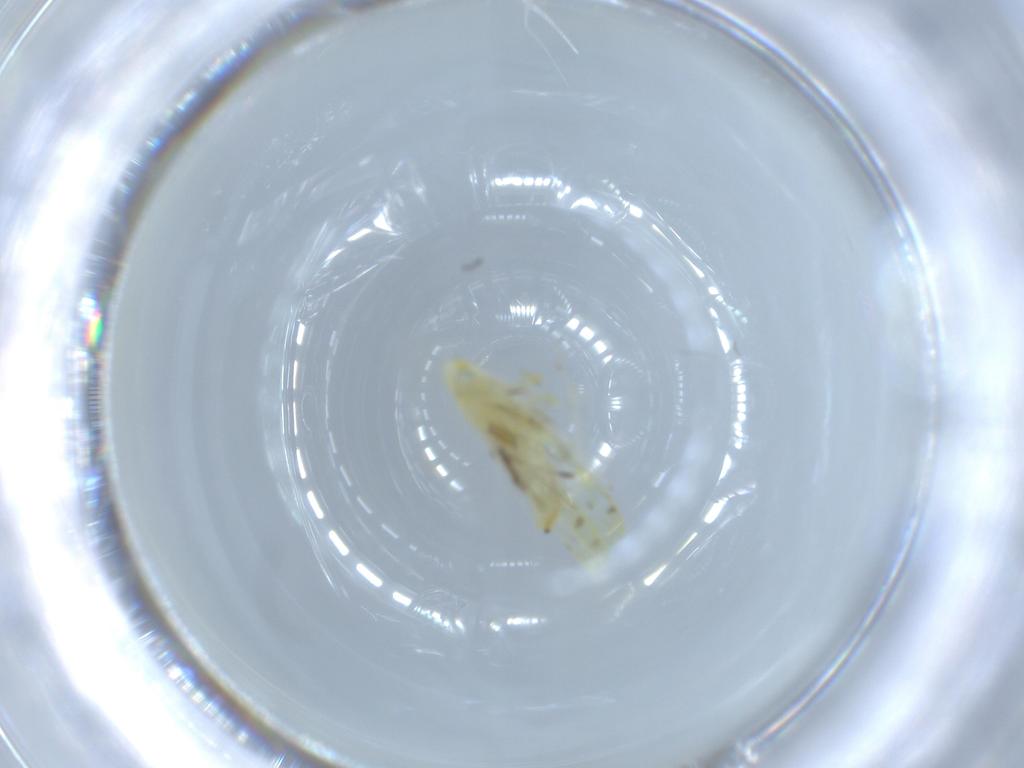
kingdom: Animalia
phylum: Arthropoda
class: Insecta
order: Hemiptera
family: Cicadellidae
